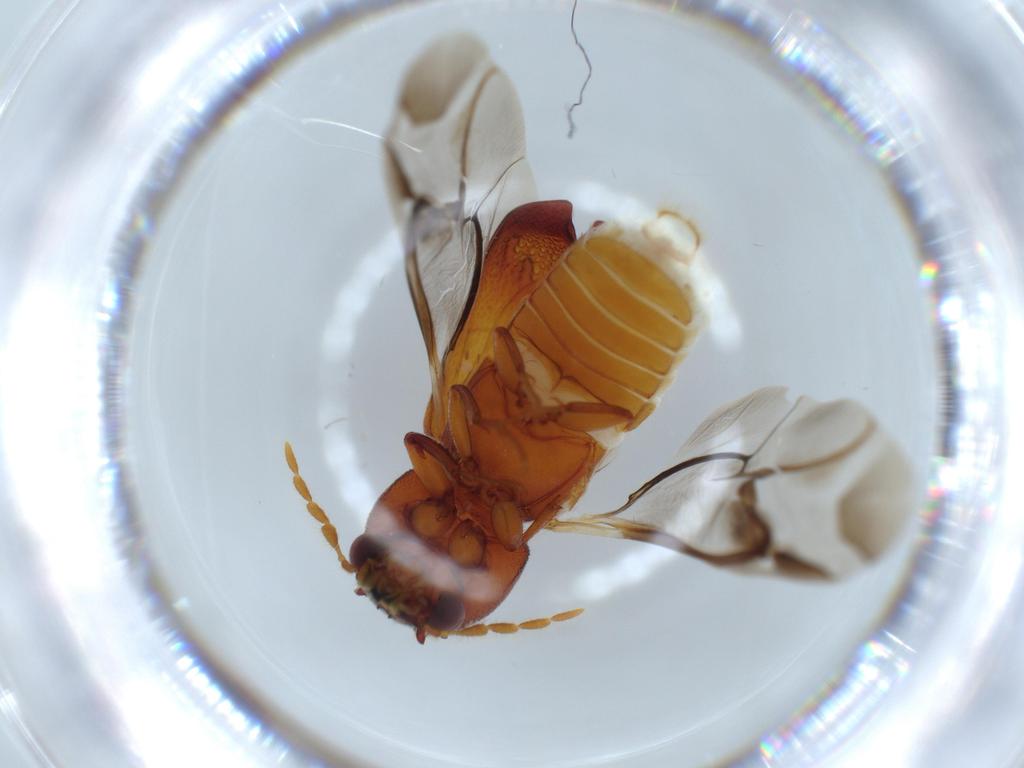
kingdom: Animalia
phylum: Arthropoda
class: Insecta
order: Coleoptera
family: Bostrichidae
